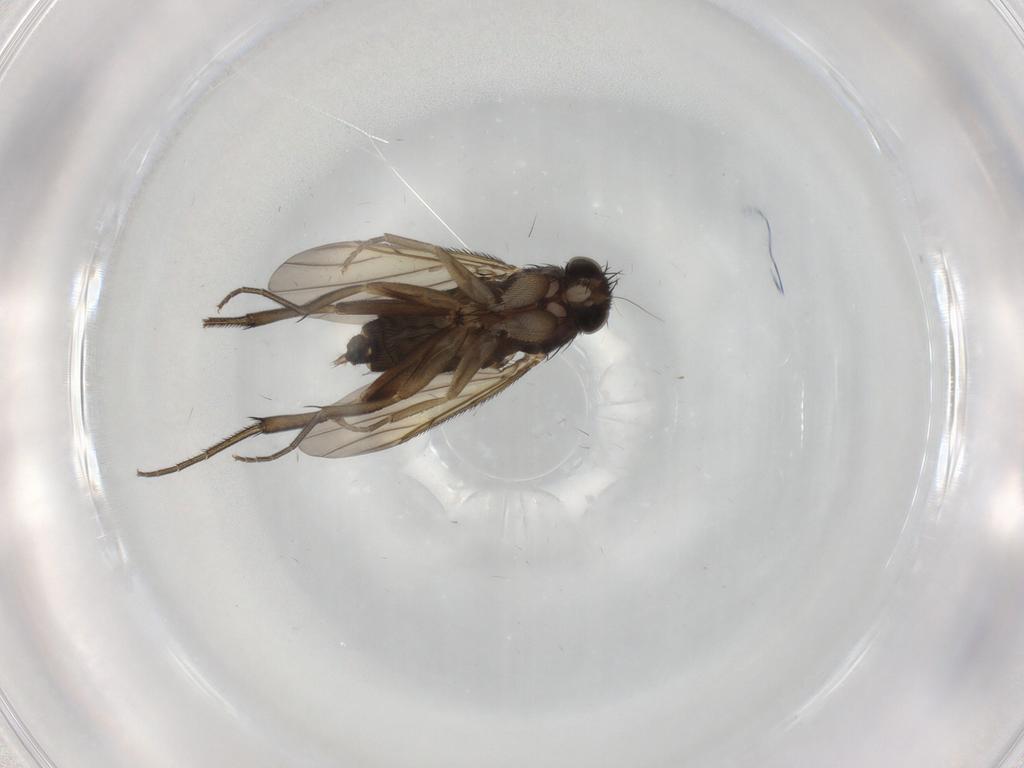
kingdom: Animalia
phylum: Arthropoda
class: Insecta
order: Diptera
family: Phoridae
